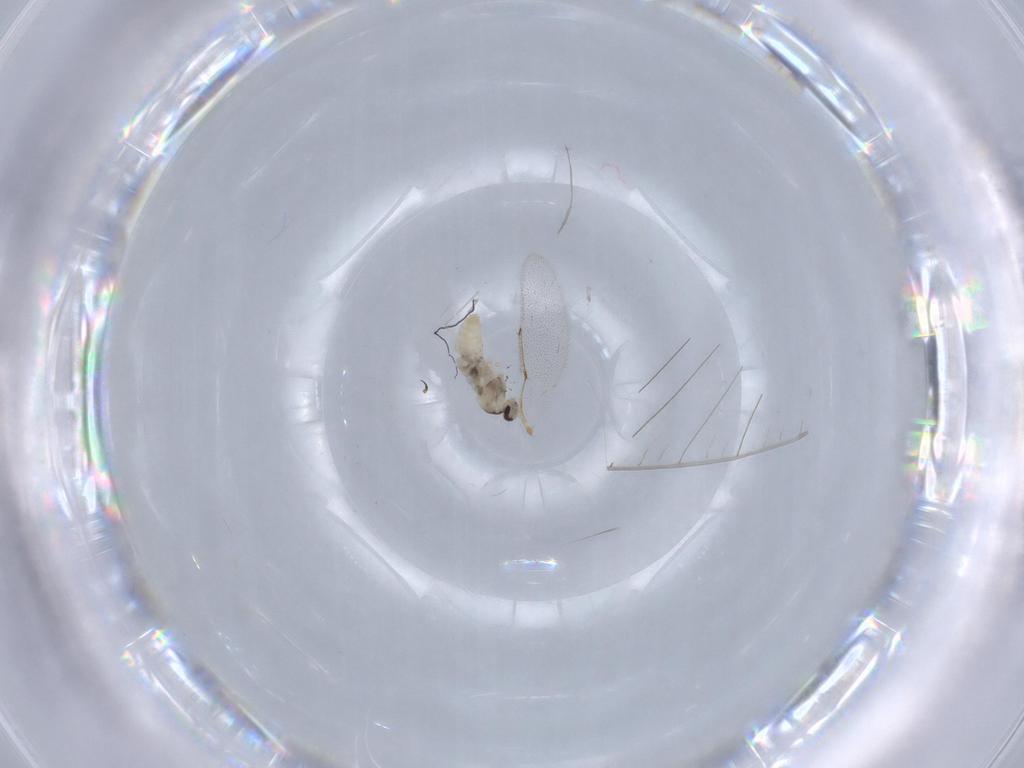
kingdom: Animalia
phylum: Arthropoda
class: Insecta
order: Diptera
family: Cecidomyiidae
